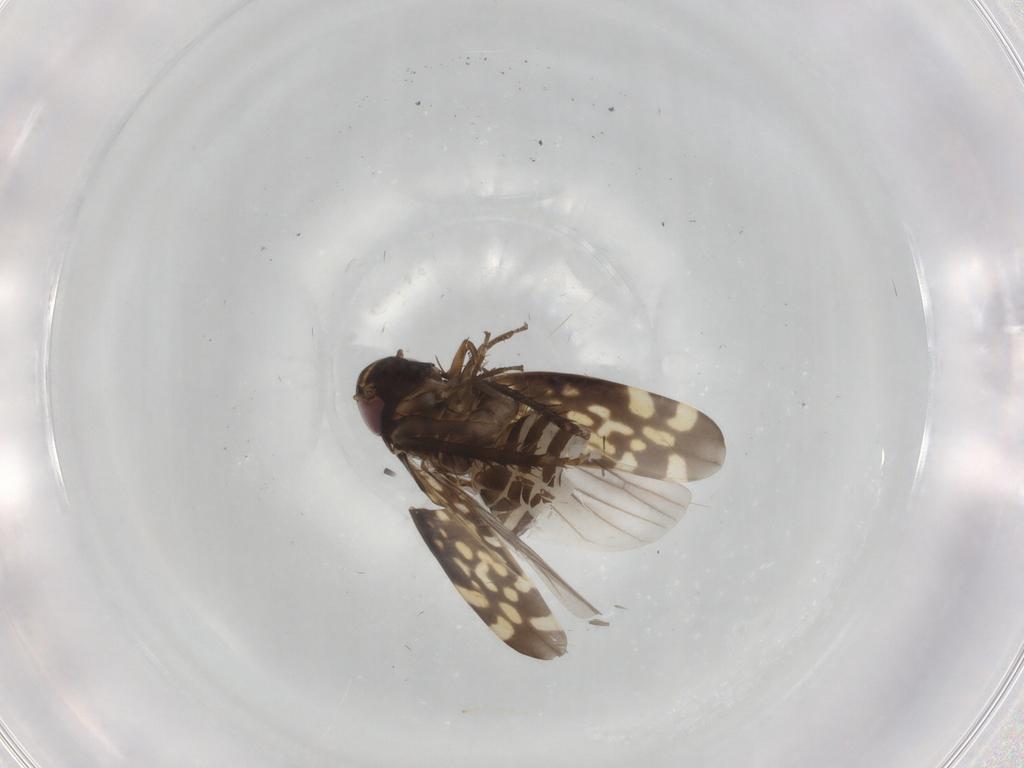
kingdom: Animalia
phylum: Arthropoda
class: Insecta
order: Hemiptera
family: Cicadellidae
